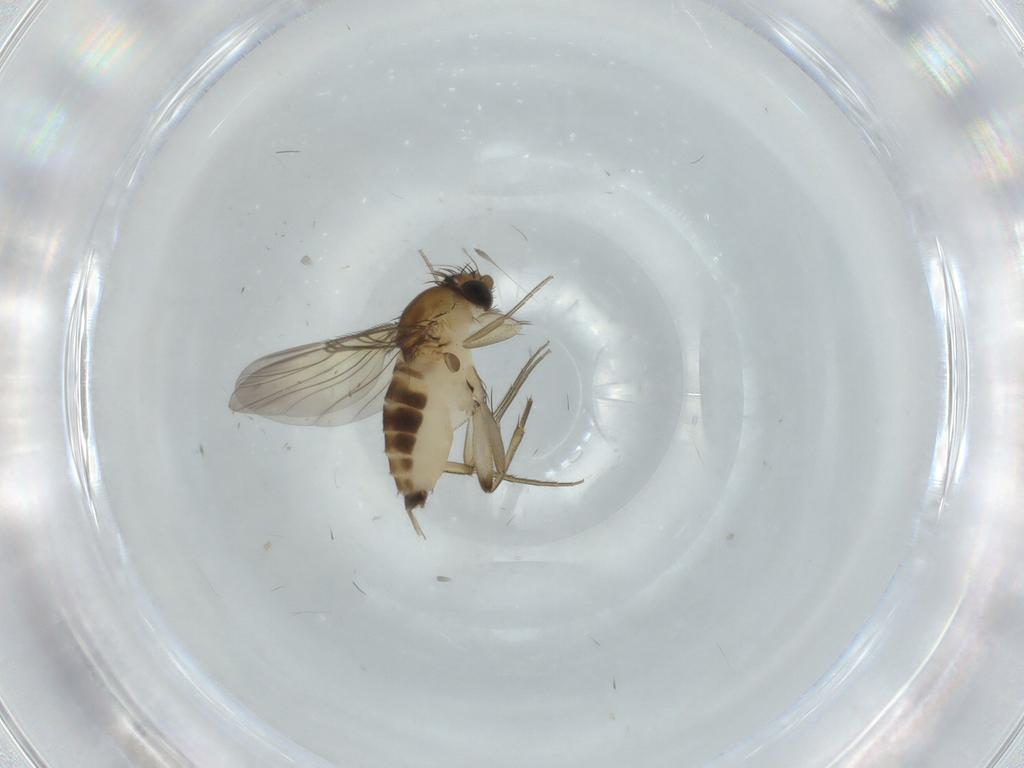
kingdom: Animalia
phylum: Arthropoda
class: Insecta
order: Diptera
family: Phoridae
